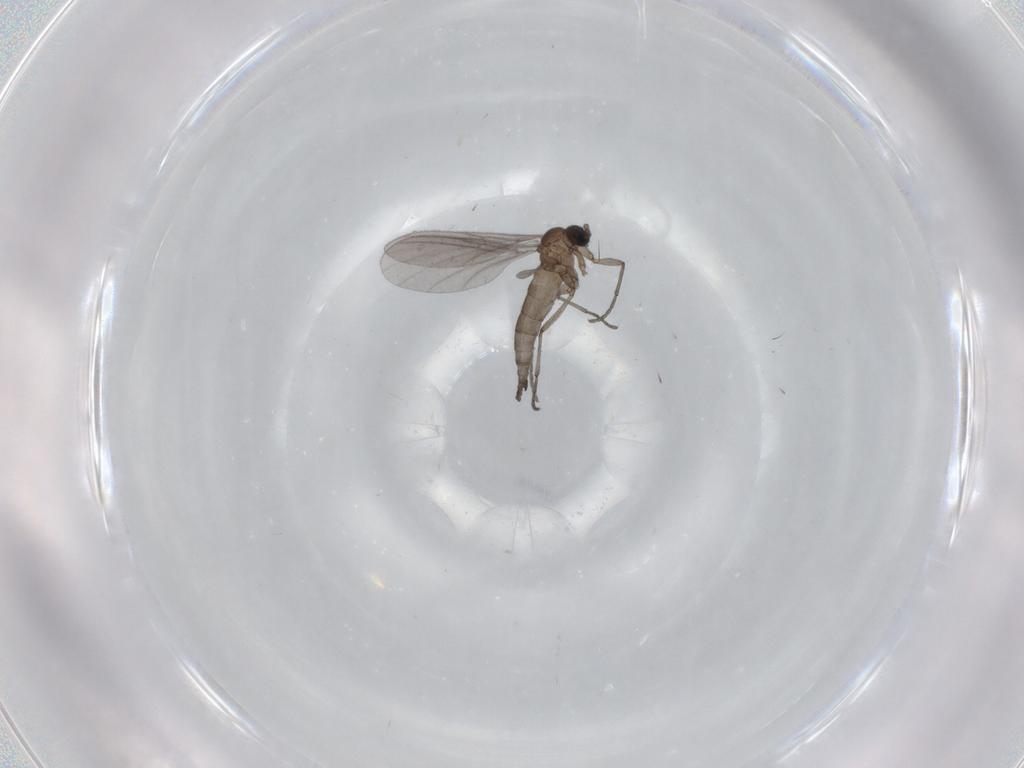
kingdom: Animalia
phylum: Arthropoda
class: Insecta
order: Diptera
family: Sciaridae
